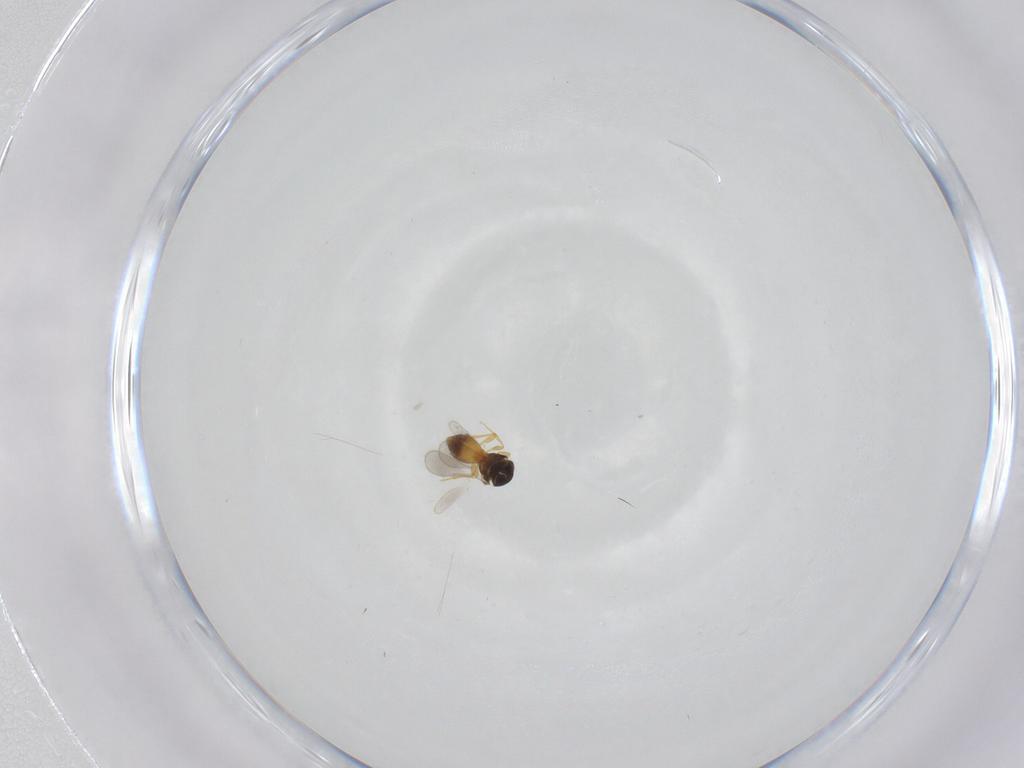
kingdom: Animalia
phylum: Arthropoda
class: Insecta
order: Hymenoptera
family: Platygastridae
